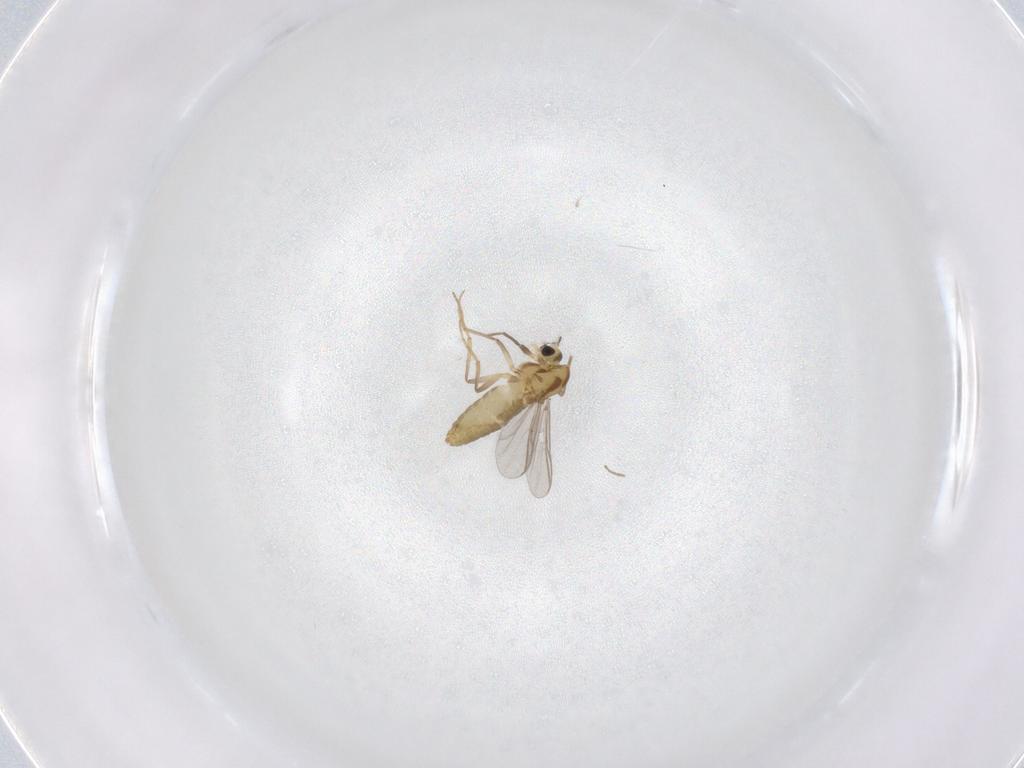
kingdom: Animalia
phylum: Arthropoda
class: Insecta
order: Diptera
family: Chironomidae
